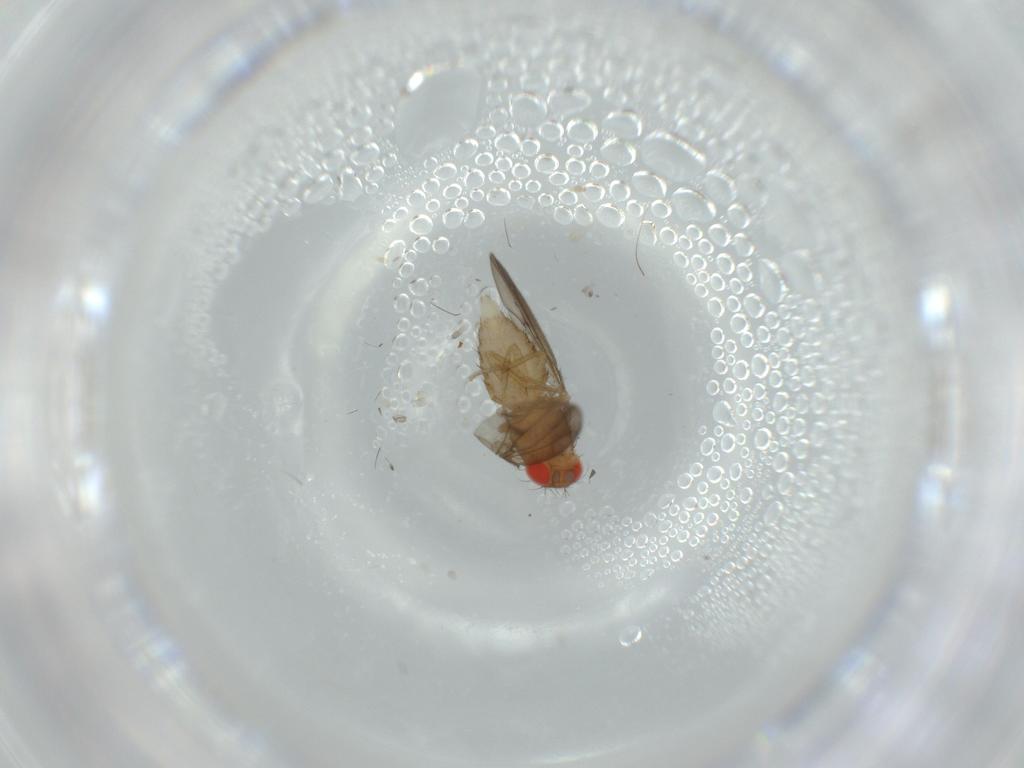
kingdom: Animalia
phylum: Arthropoda
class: Insecta
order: Diptera
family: Drosophilidae
